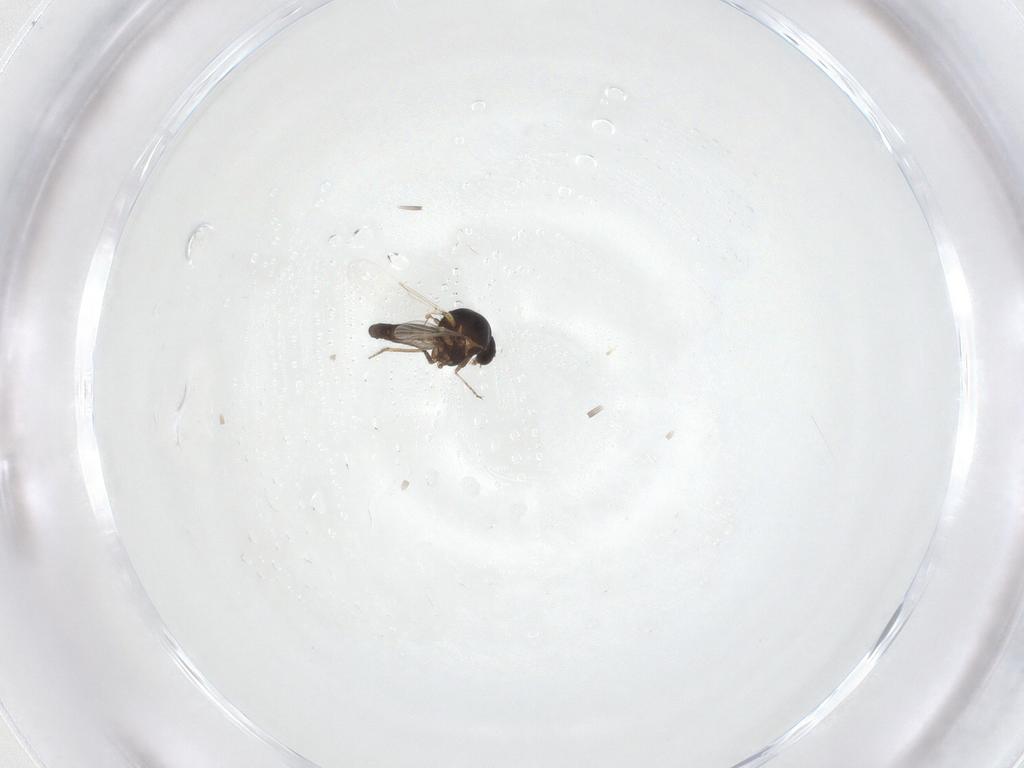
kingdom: Animalia
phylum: Arthropoda
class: Insecta
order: Diptera
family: Ceratopogonidae
